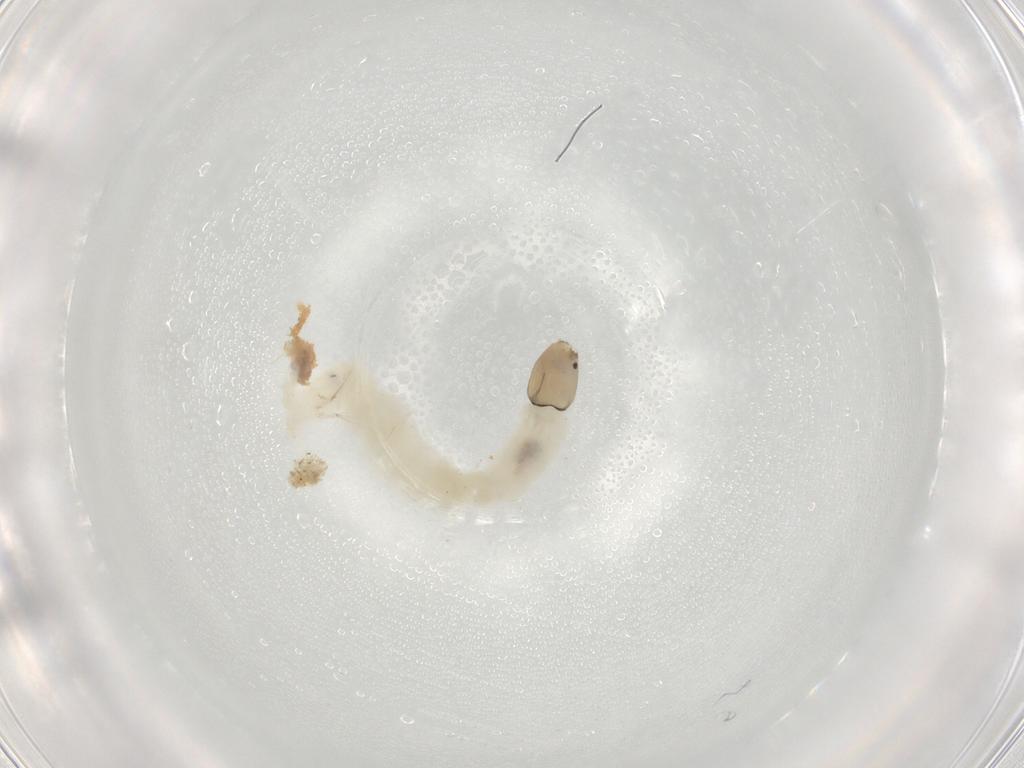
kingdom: Animalia
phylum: Arthropoda
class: Insecta
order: Diptera
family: Chironomidae
